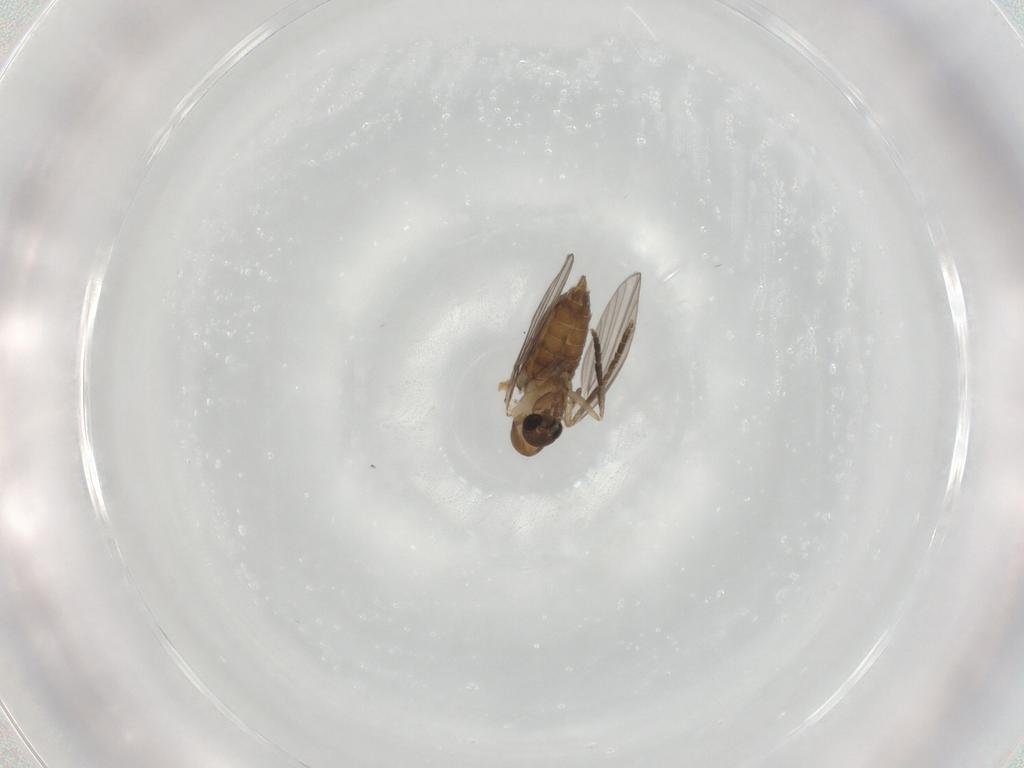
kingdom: Animalia
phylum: Arthropoda
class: Insecta
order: Diptera
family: Psychodidae
